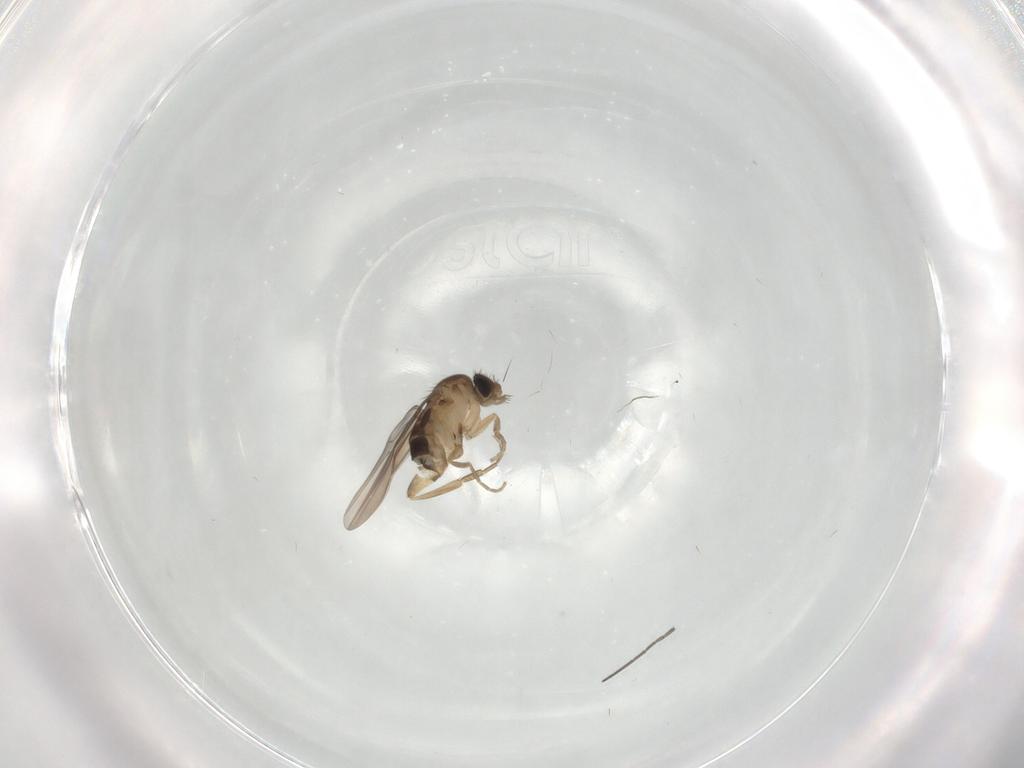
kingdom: Animalia
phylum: Arthropoda
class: Insecta
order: Diptera
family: Phoridae
